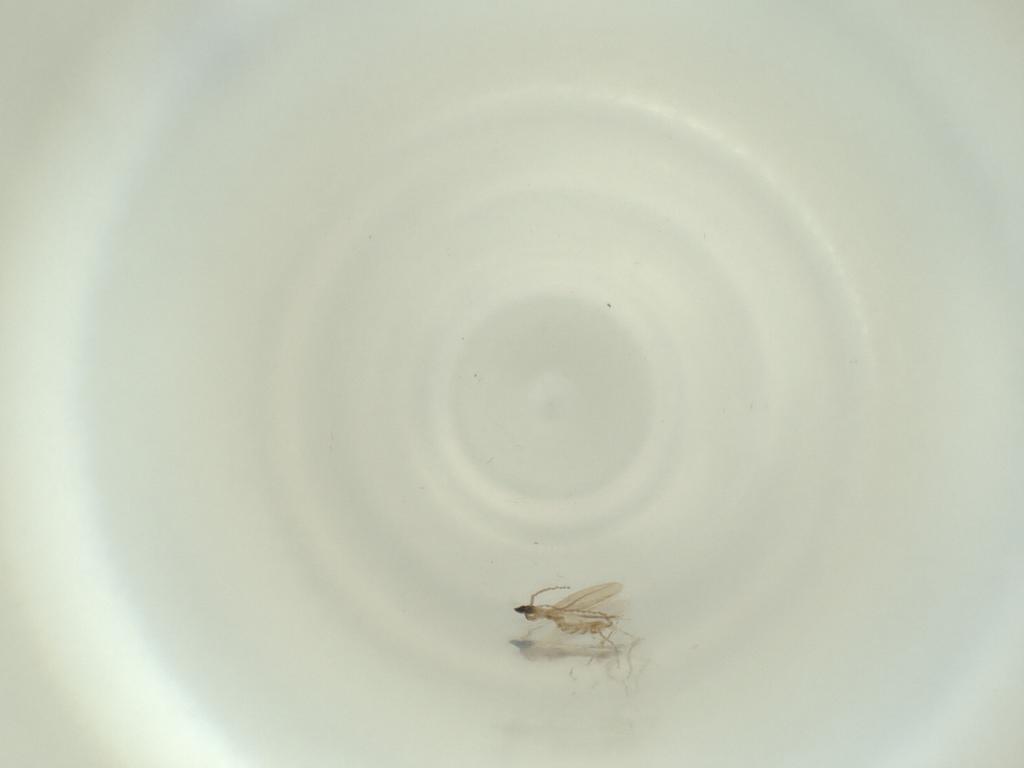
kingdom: Animalia
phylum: Arthropoda
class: Insecta
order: Diptera
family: Cecidomyiidae
